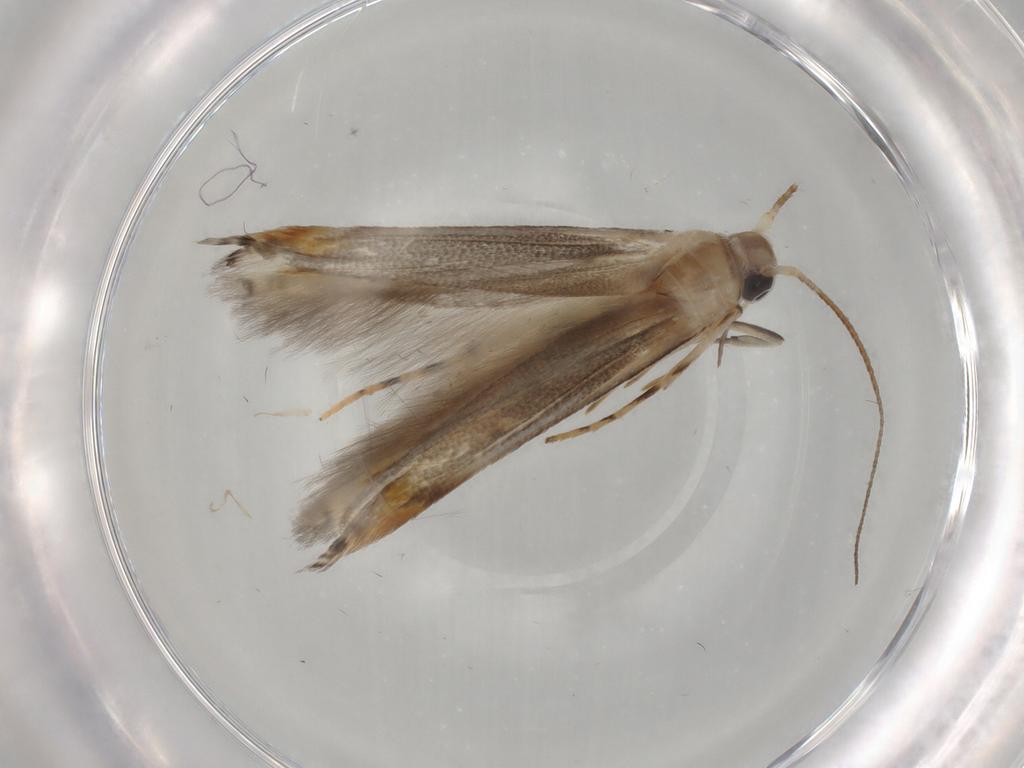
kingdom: Animalia
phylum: Arthropoda
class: Insecta
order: Lepidoptera
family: Gelechiidae
